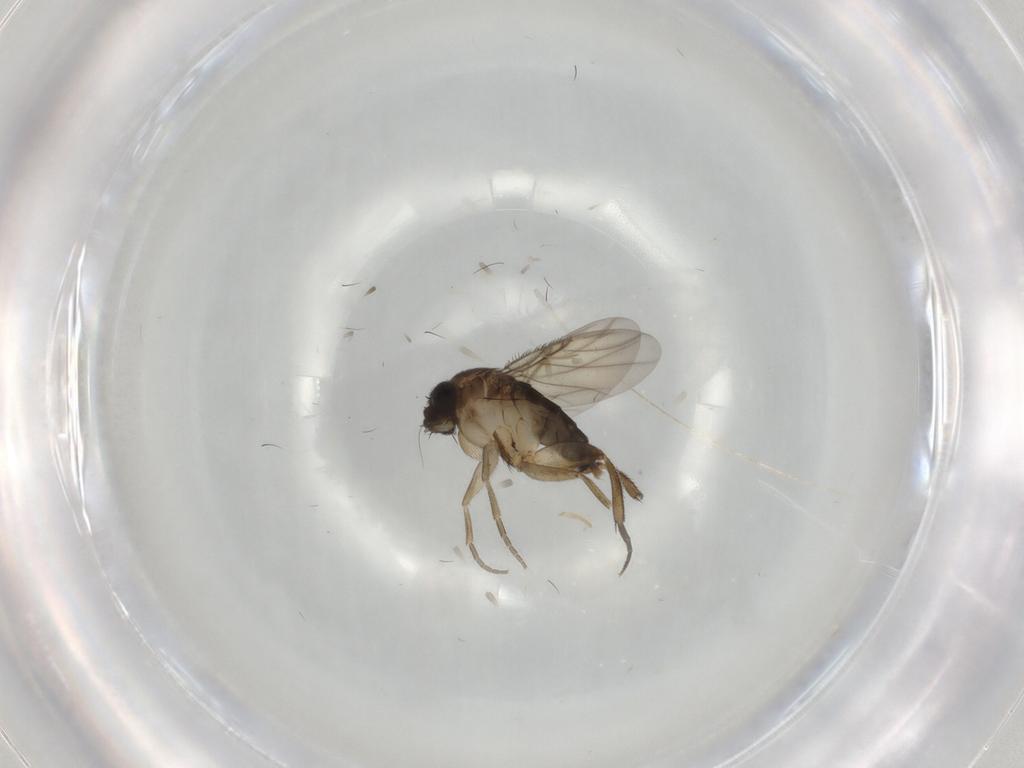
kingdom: Animalia
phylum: Arthropoda
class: Insecta
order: Diptera
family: Phoridae
